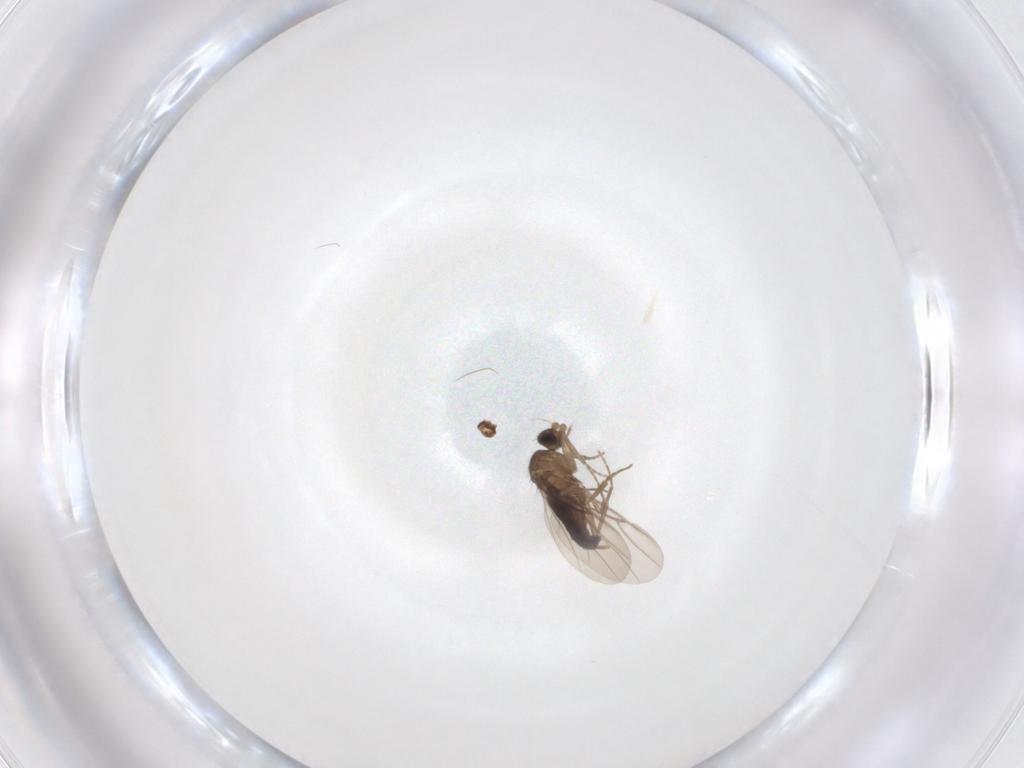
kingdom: Animalia
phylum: Arthropoda
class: Insecta
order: Diptera
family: Cecidomyiidae
